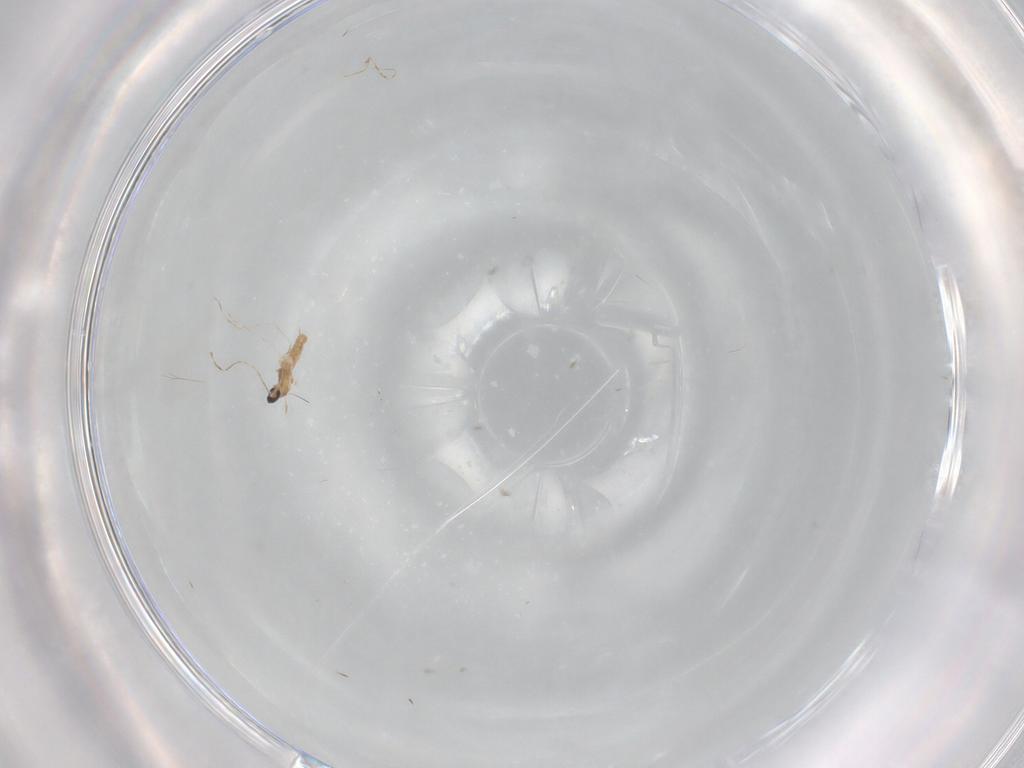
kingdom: Animalia
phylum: Arthropoda
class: Insecta
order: Diptera
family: Cecidomyiidae
